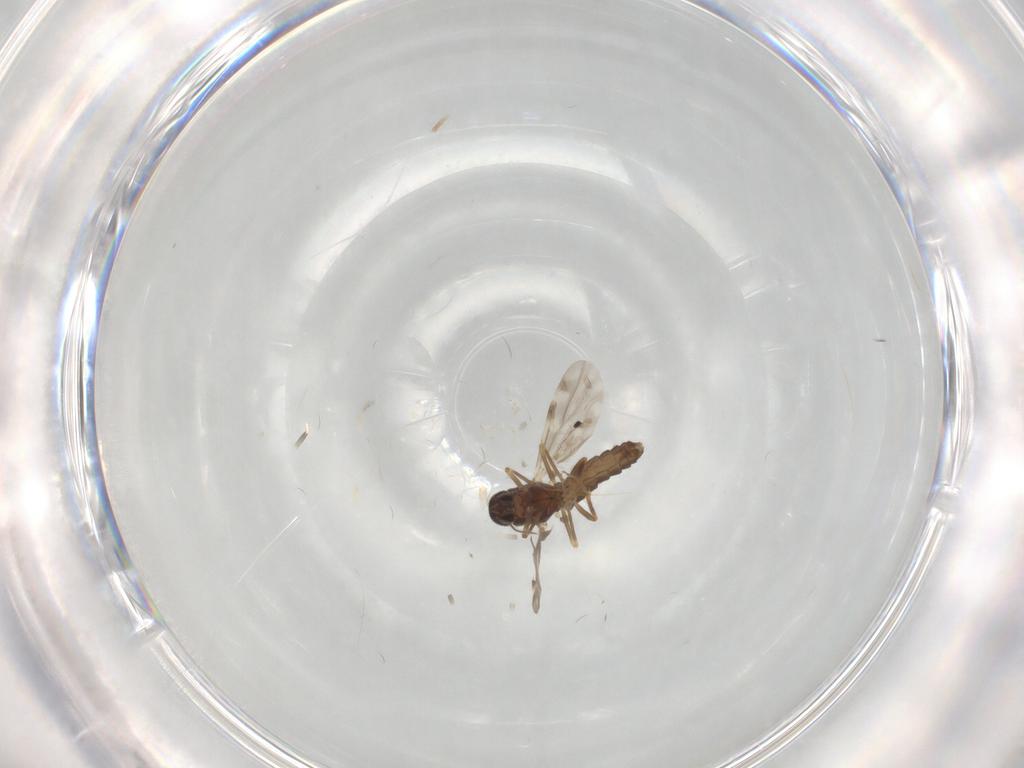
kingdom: Animalia
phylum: Arthropoda
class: Insecta
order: Diptera
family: Ceratopogonidae
